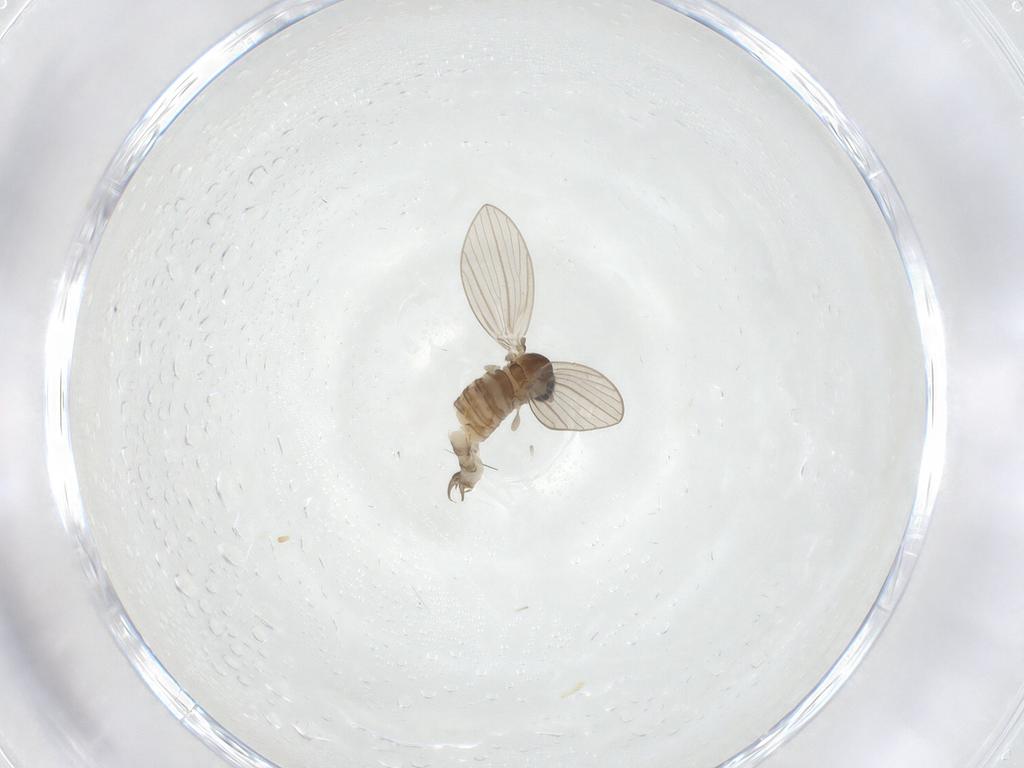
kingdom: Animalia
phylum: Arthropoda
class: Insecta
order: Diptera
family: Psychodidae
